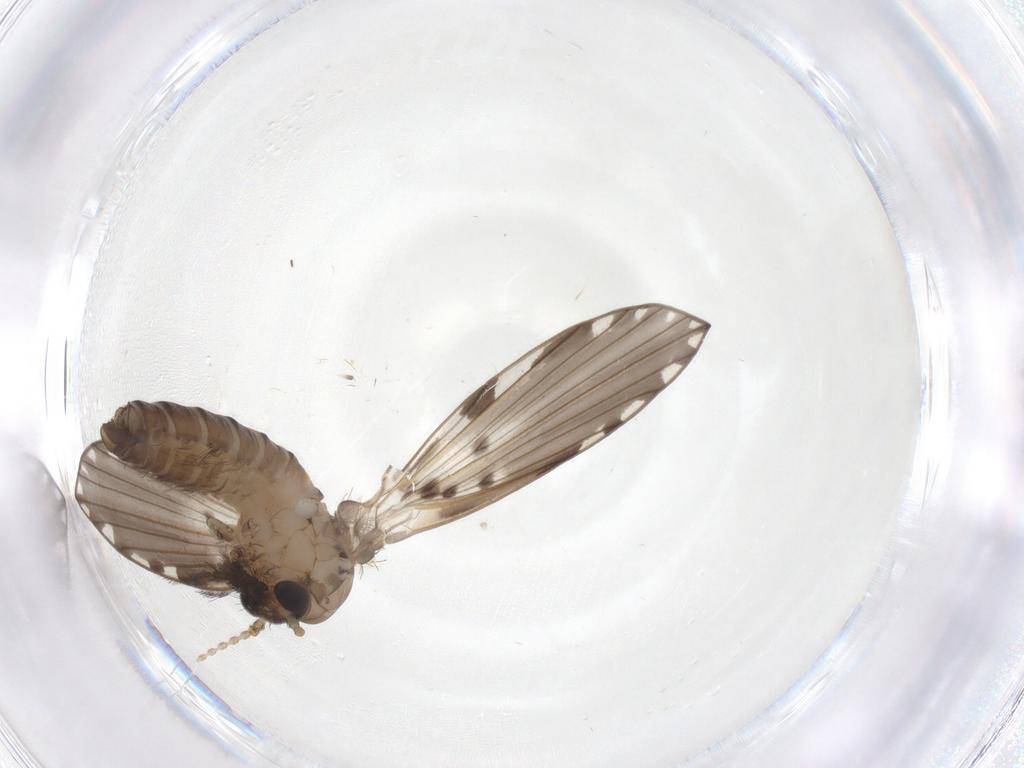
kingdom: Animalia
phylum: Arthropoda
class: Insecta
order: Diptera
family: Psychodidae
